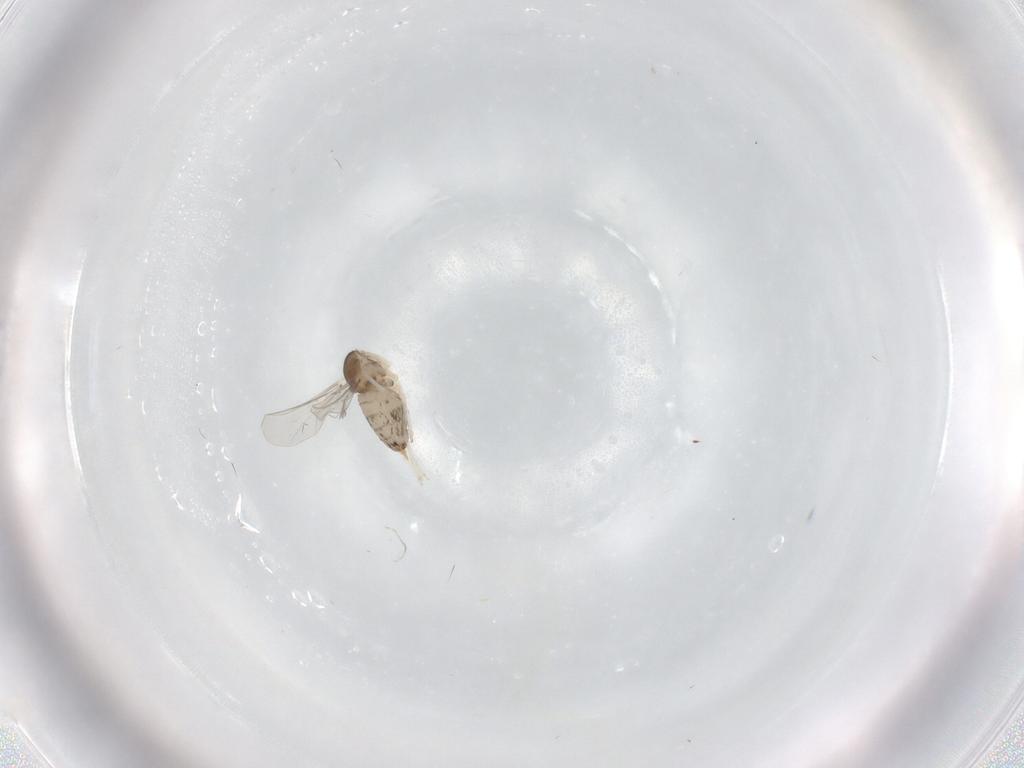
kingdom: Animalia
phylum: Arthropoda
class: Insecta
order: Diptera
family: Cecidomyiidae
